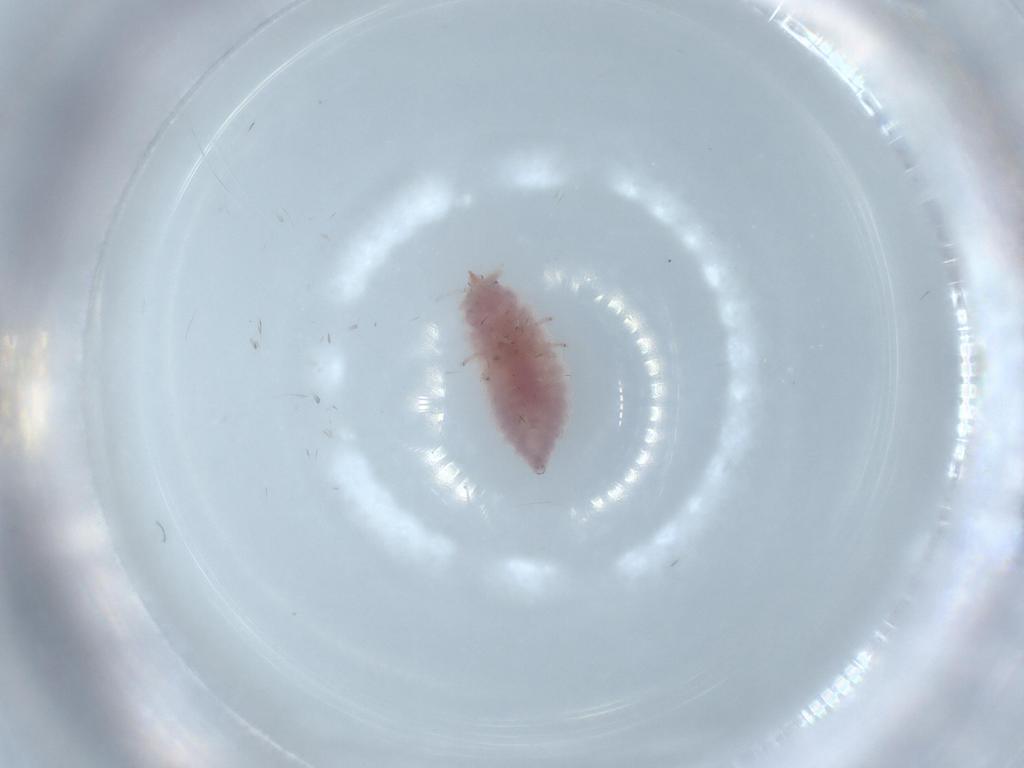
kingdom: Animalia
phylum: Arthropoda
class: Insecta
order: Neuroptera
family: Coniopterygidae
